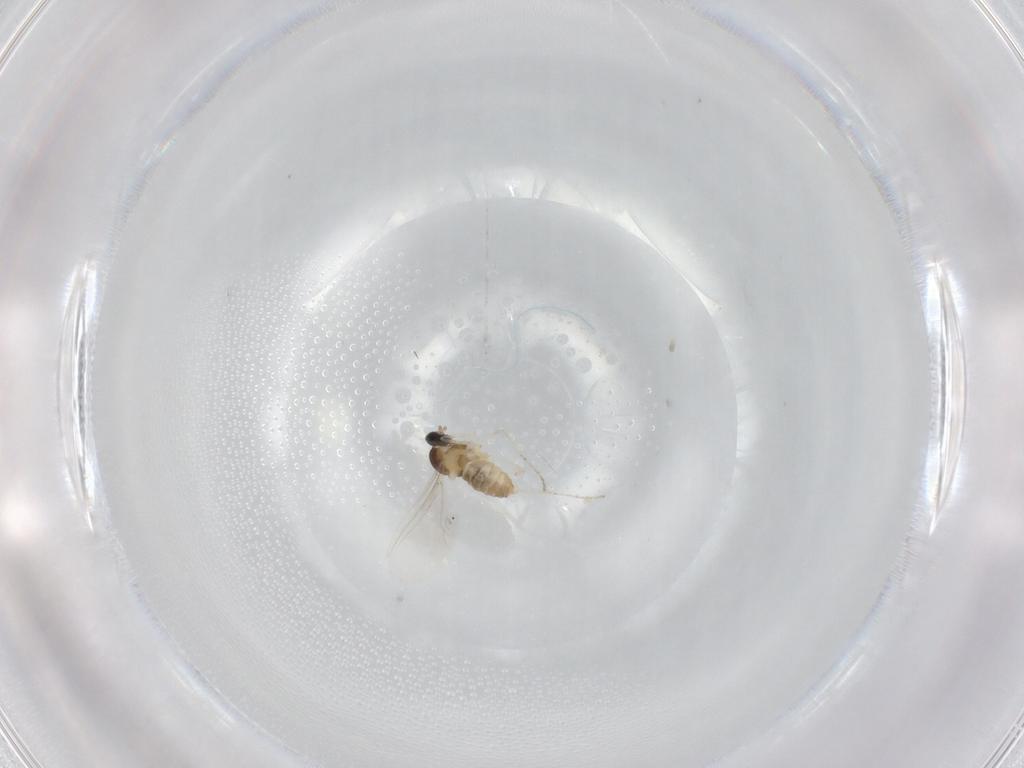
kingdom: Animalia
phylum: Arthropoda
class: Insecta
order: Diptera
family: Cecidomyiidae
